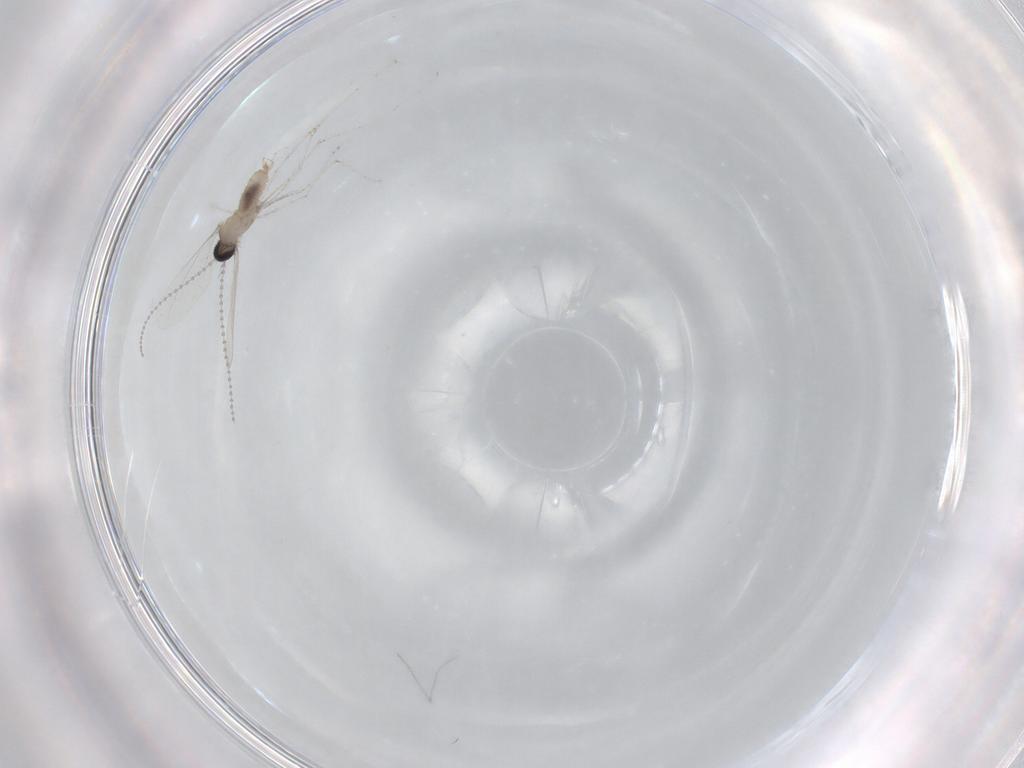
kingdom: Animalia
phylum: Arthropoda
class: Insecta
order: Diptera
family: Cecidomyiidae
